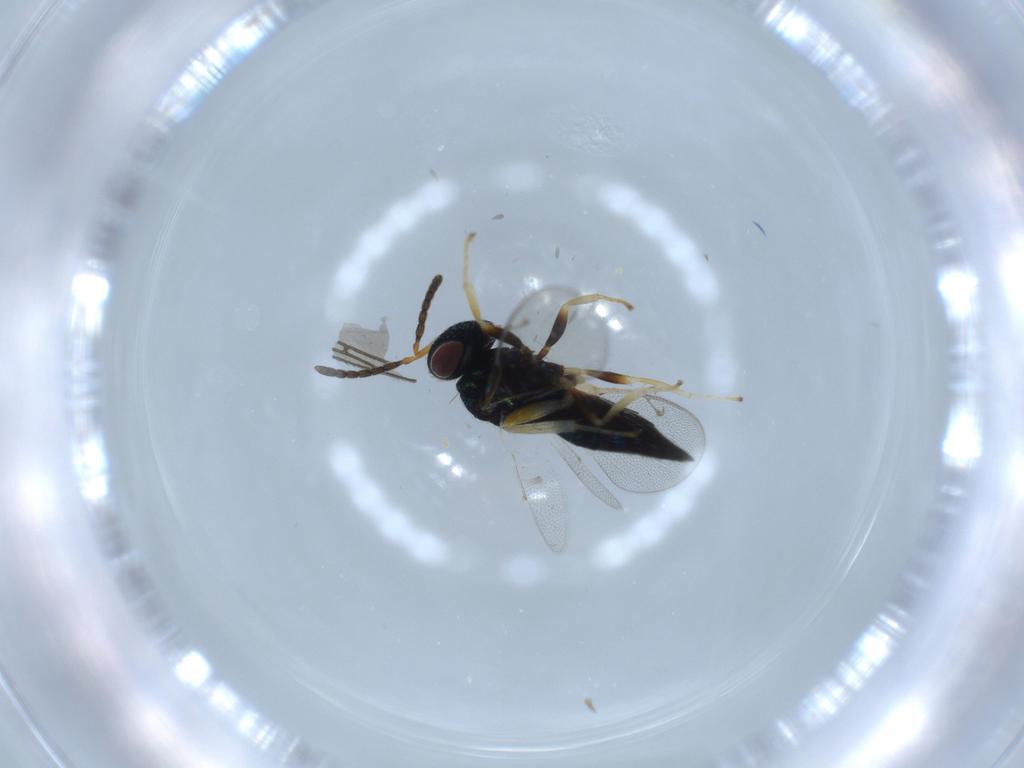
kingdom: Animalia
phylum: Arthropoda
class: Insecta
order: Hymenoptera
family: Pteromalidae
